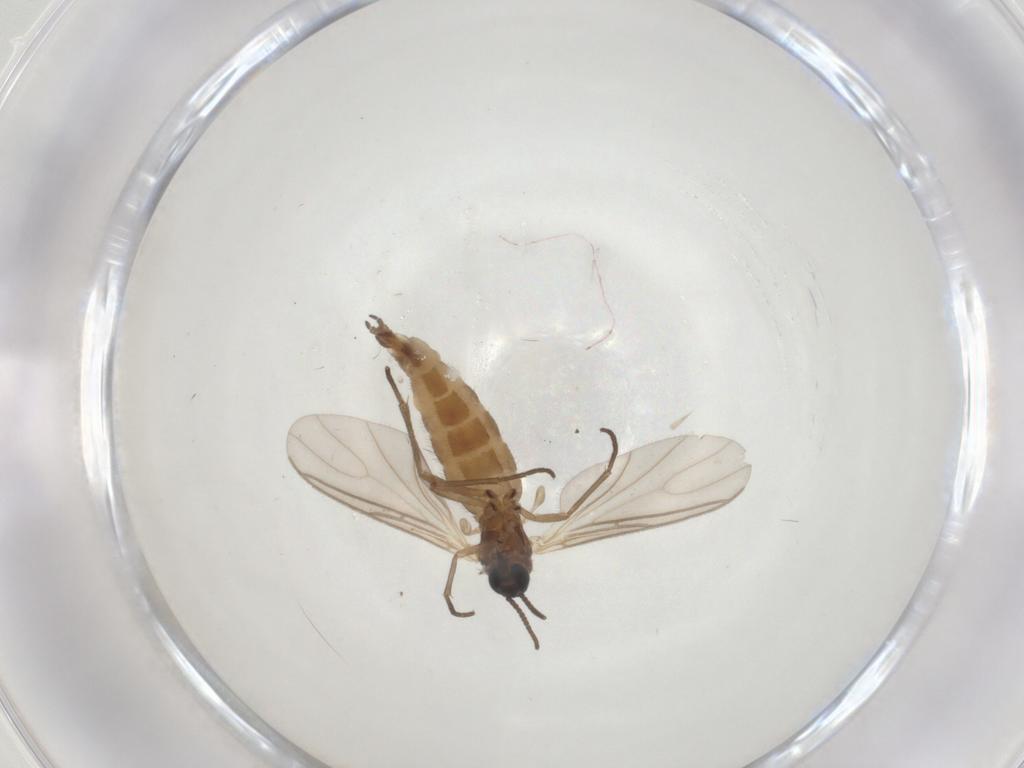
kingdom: Animalia
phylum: Arthropoda
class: Insecta
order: Diptera
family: Sciaridae
